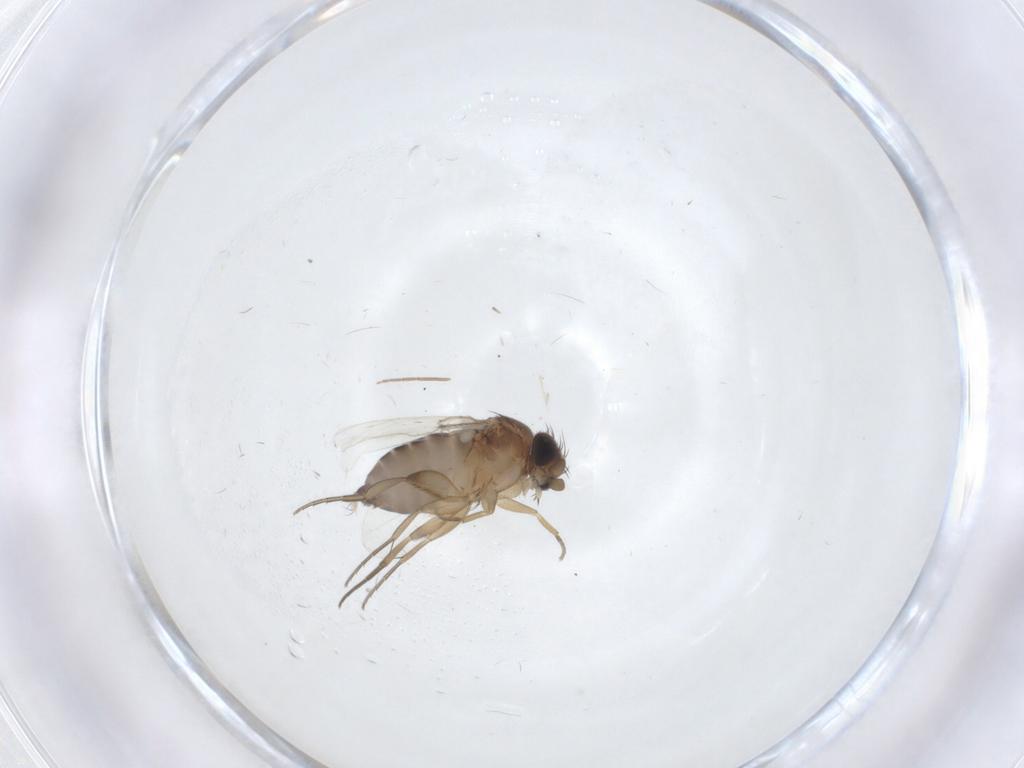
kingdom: Animalia
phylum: Arthropoda
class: Insecta
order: Diptera
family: Phoridae
